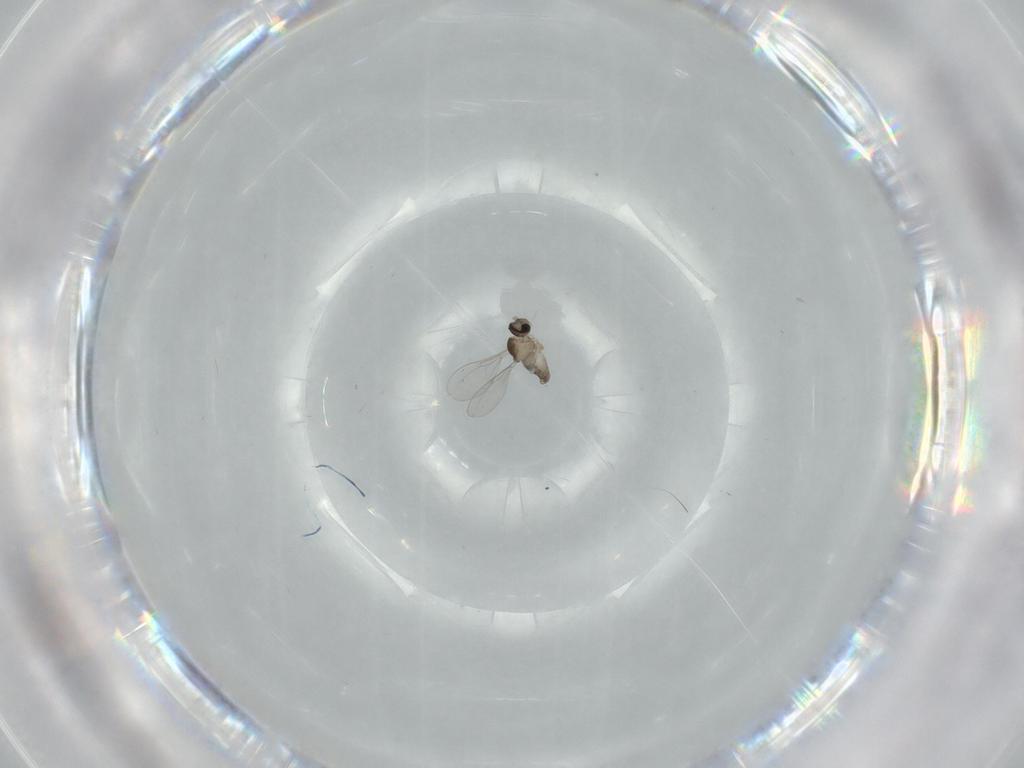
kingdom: Animalia
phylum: Arthropoda
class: Insecta
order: Diptera
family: Cecidomyiidae
